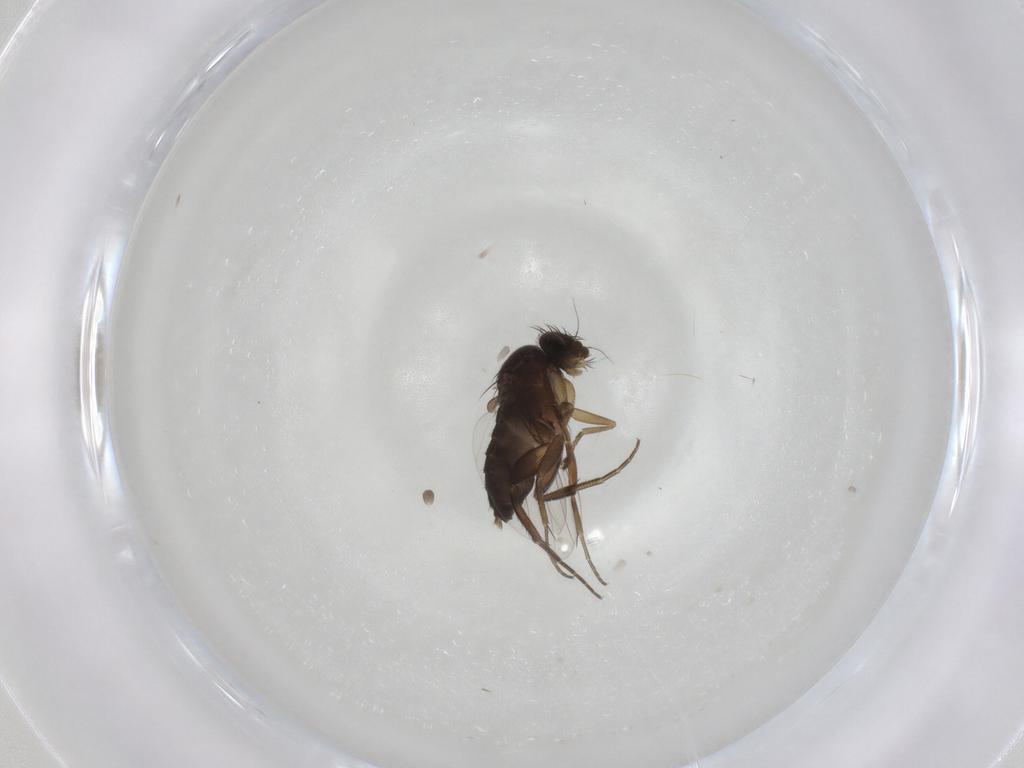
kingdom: Animalia
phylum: Arthropoda
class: Insecta
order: Diptera
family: Phoridae
